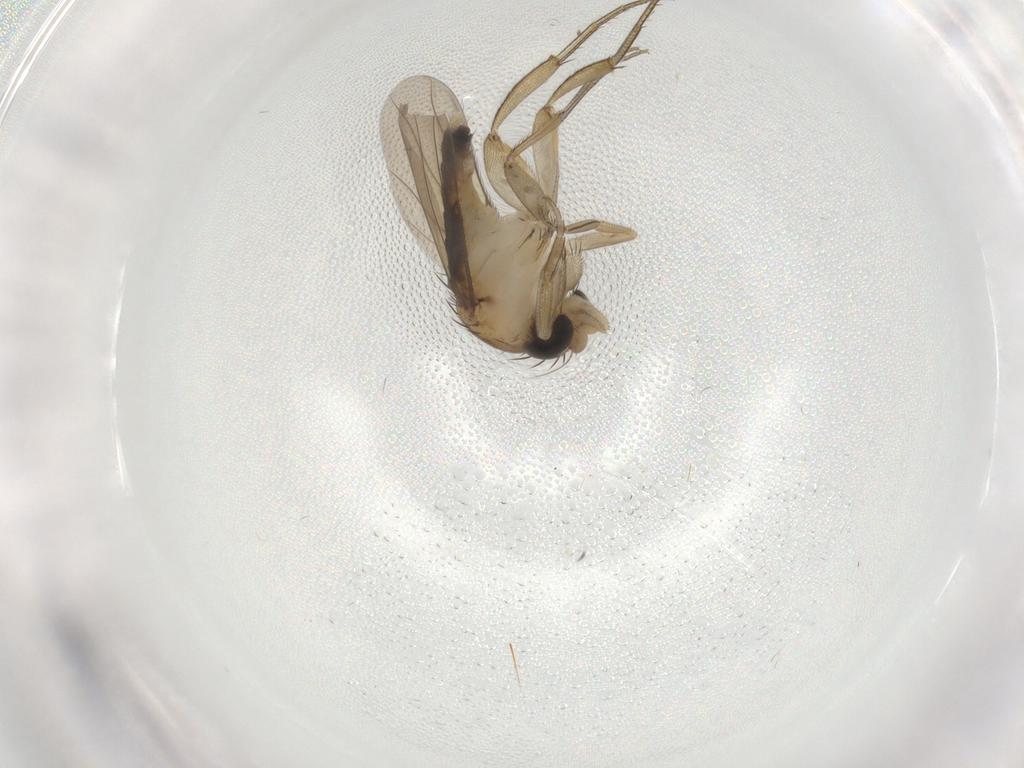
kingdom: Animalia
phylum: Arthropoda
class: Insecta
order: Diptera
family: Phoridae
